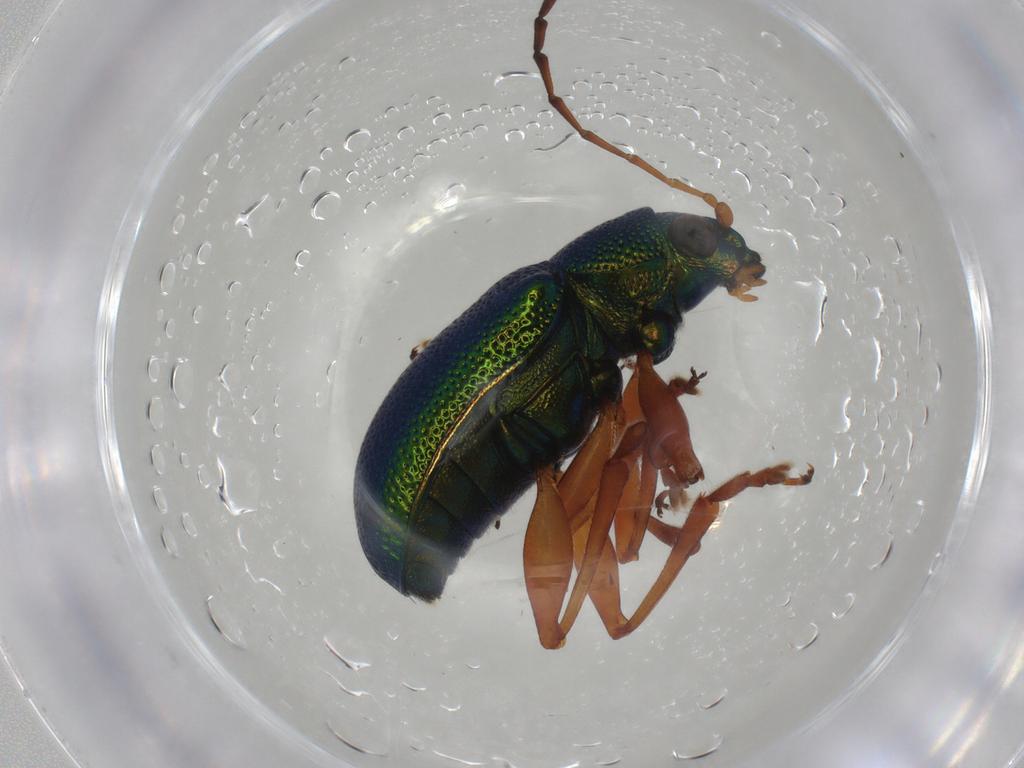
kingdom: Animalia
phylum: Arthropoda
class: Insecta
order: Coleoptera
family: Chrysomelidae
